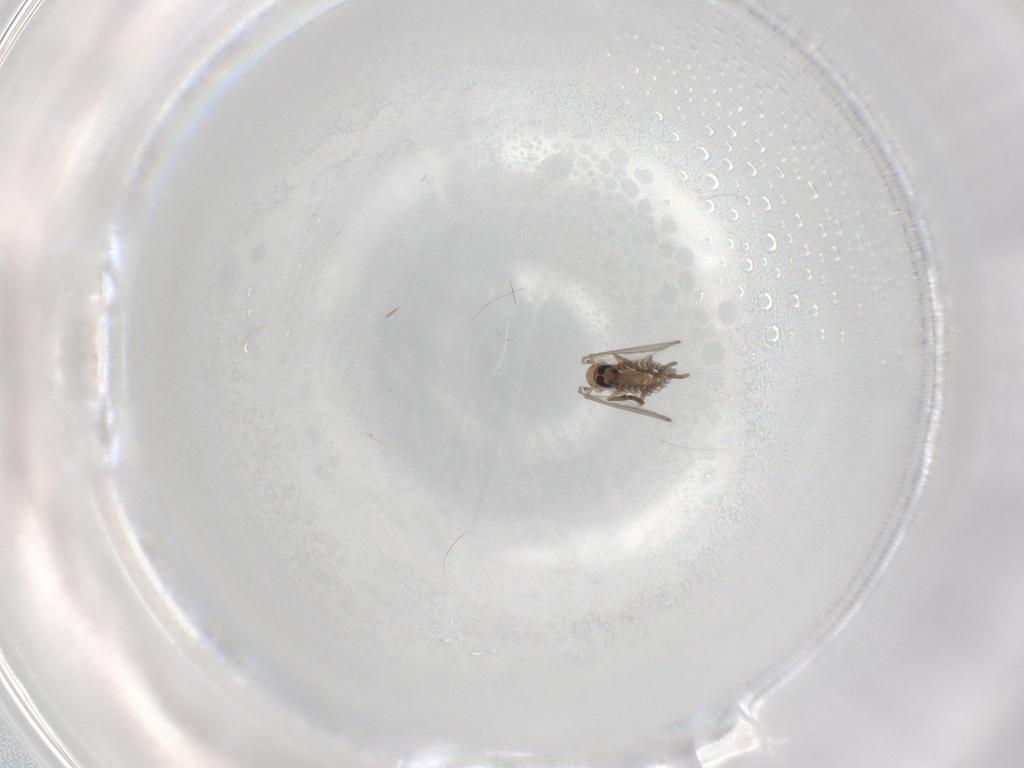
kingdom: Animalia
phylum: Arthropoda
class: Insecta
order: Diptera
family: Psychodidae
